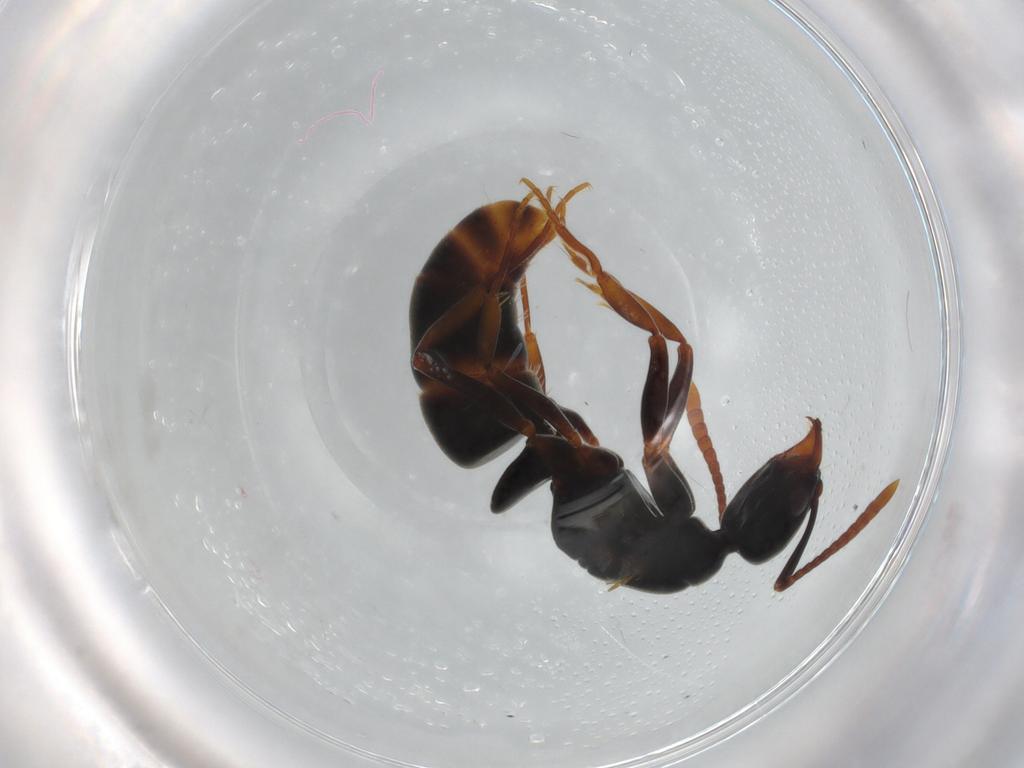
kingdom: Animalia
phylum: Arthropoda
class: Insecta
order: Hymenoptera
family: Formicidae
